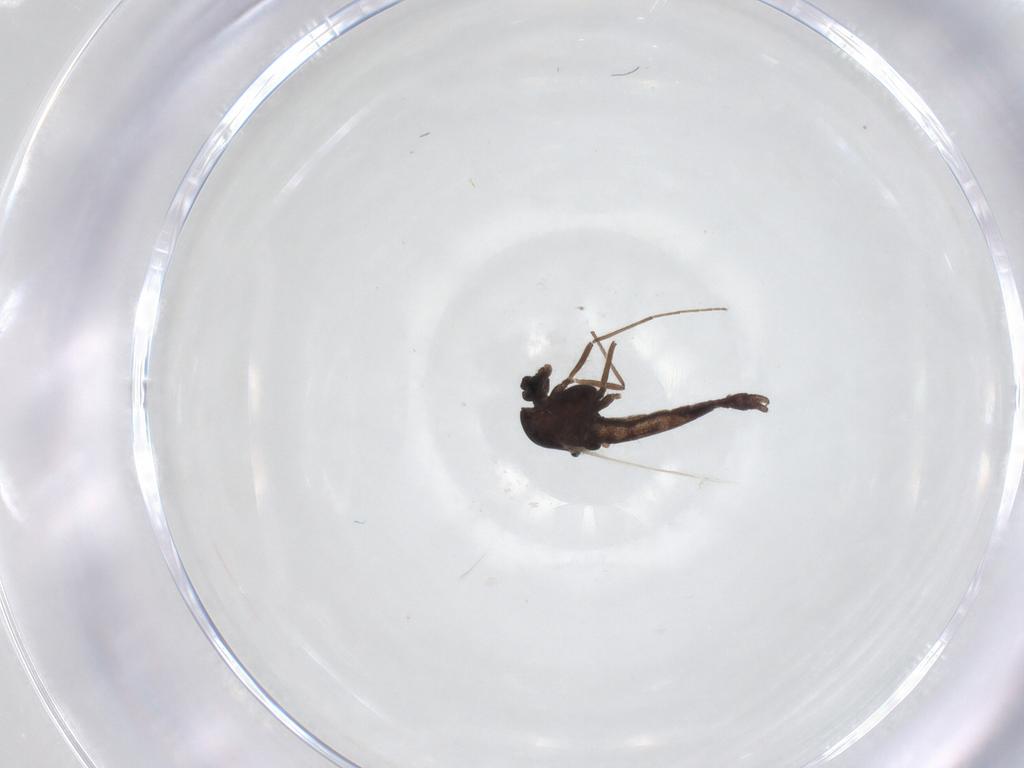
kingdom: Animalia
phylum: Arthropoda
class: Insecta
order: Diptera
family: Chironomidae
